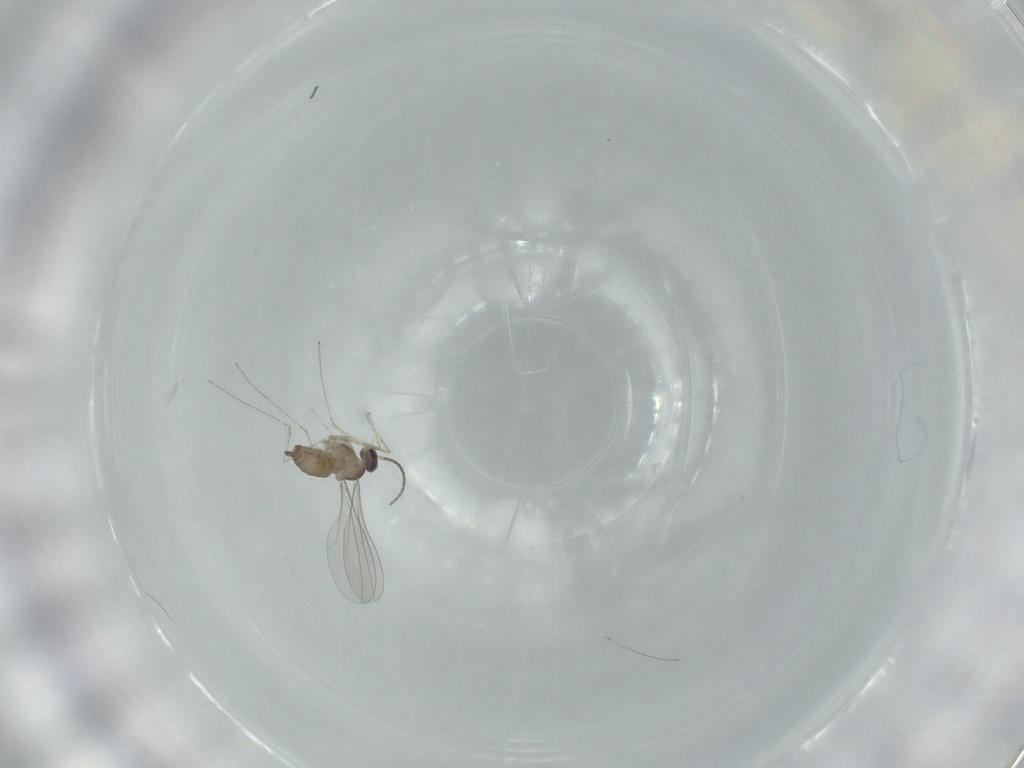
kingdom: Animalia
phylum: Arthropoda
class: Insecta
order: Diptera
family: Cecidomyiidae
